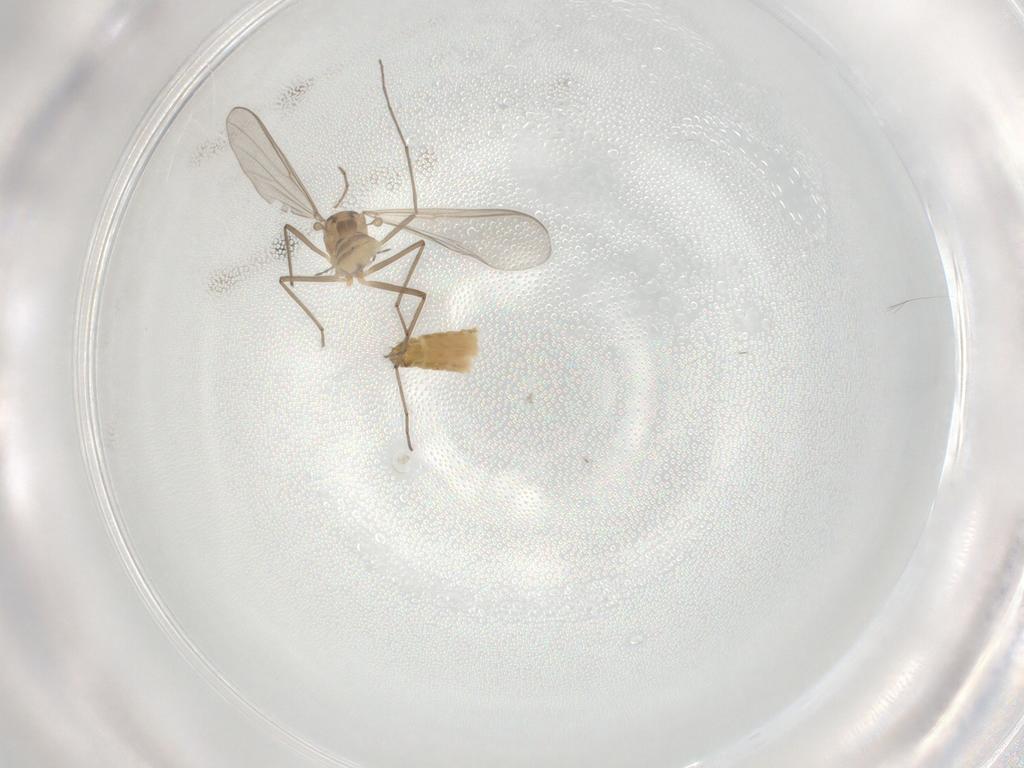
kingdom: Animalia
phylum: Arthropoda
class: Insecta
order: Diptera
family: Chironomidae
